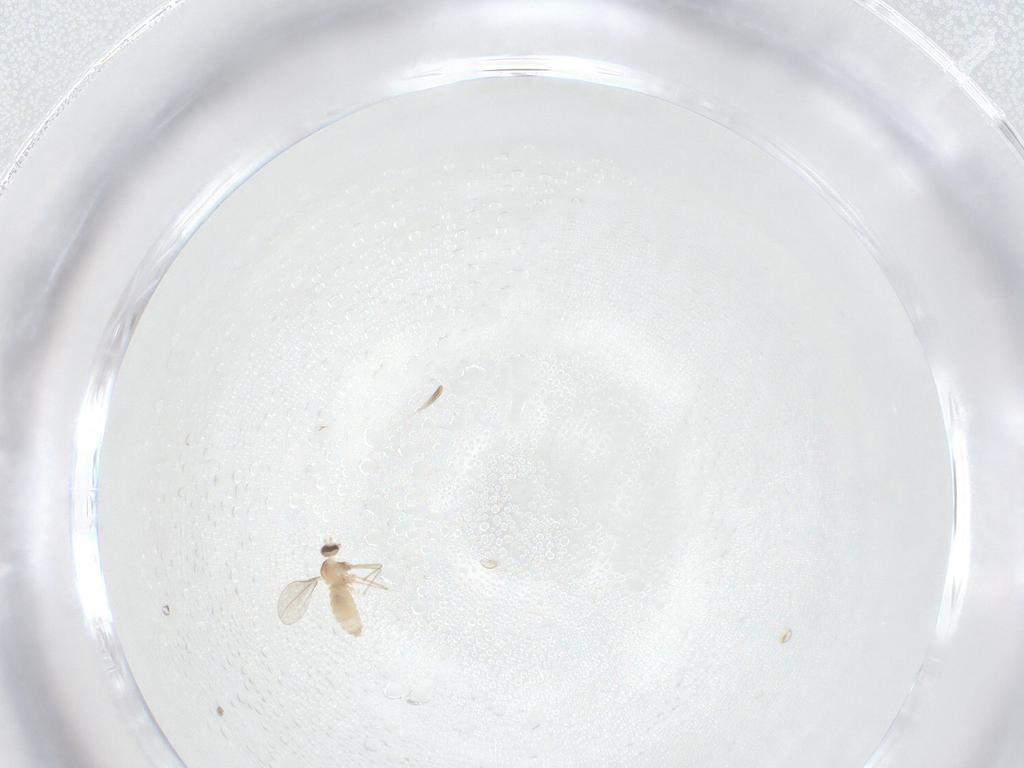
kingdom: Animalia
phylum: Arthropoda
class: Insecta
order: Diptera
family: Cecidomyiidae
